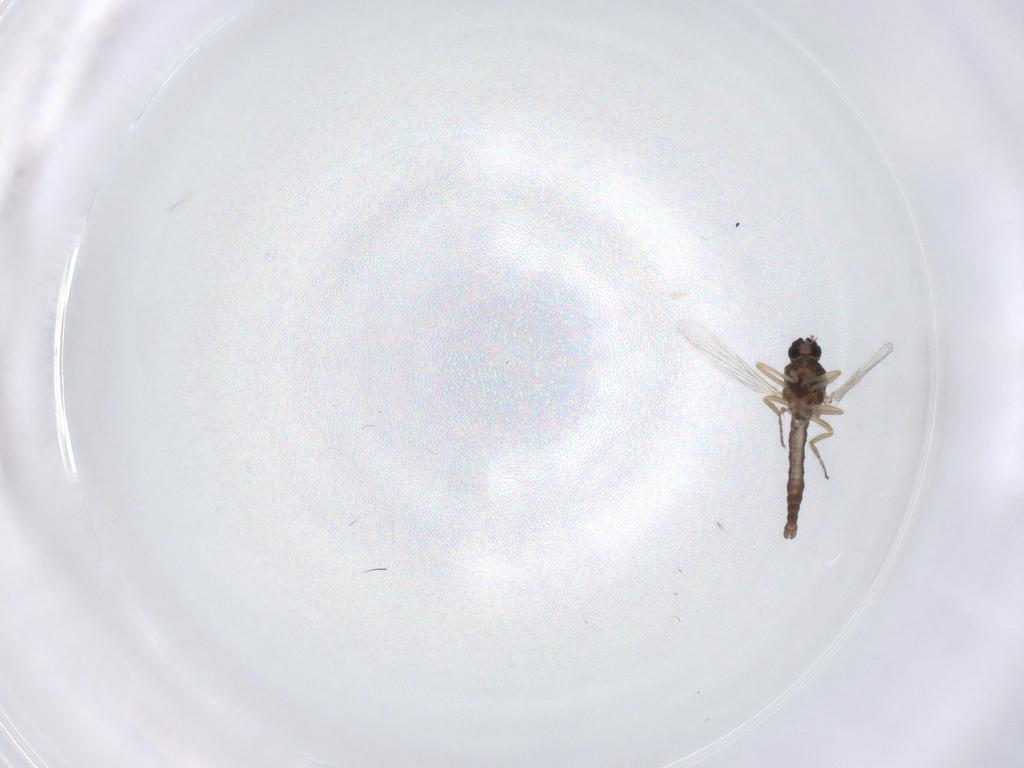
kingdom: Animalia
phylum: Arthropoda
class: Insecta
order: Diptera
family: Ceratopogonidae
